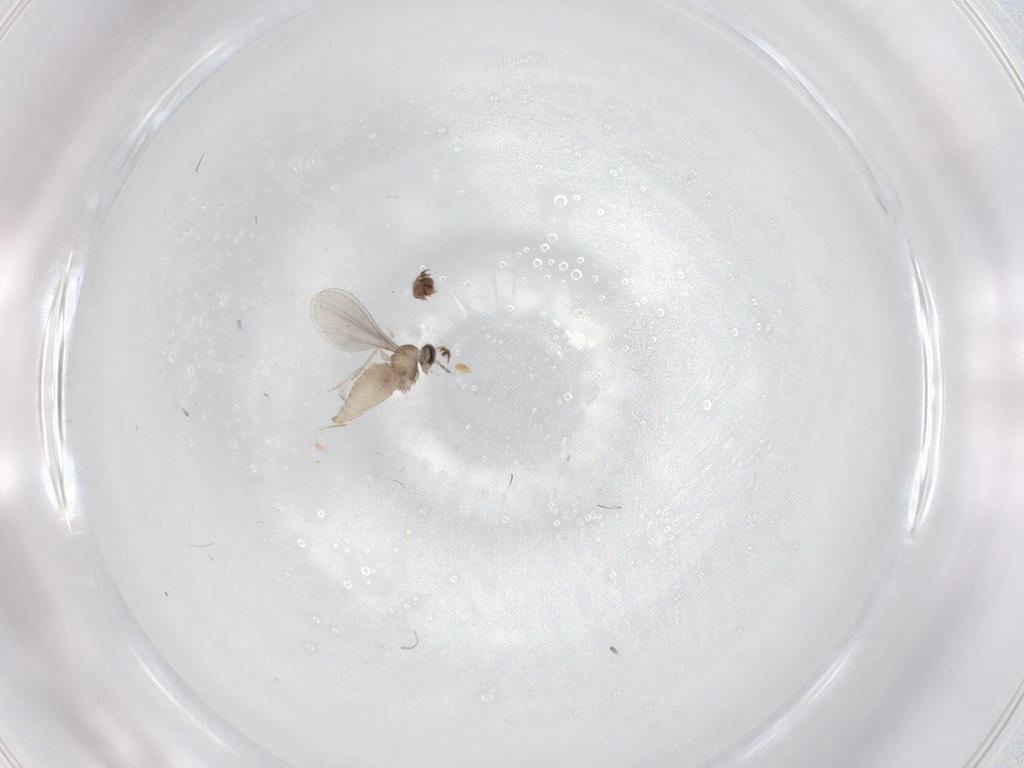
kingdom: Animalia
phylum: Arthropoda
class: Insecta
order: Diptera
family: Cecidomyiidae
